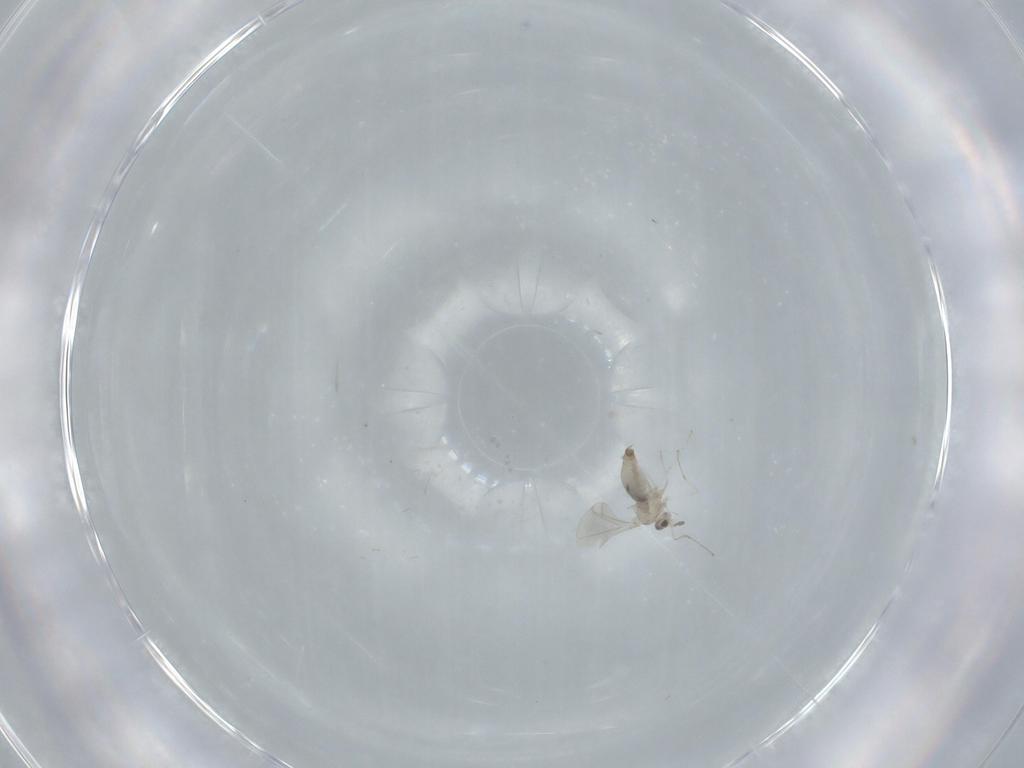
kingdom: Animalia
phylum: Arthropoda
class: Insecta
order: Diptera
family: Cecidomyiidae
